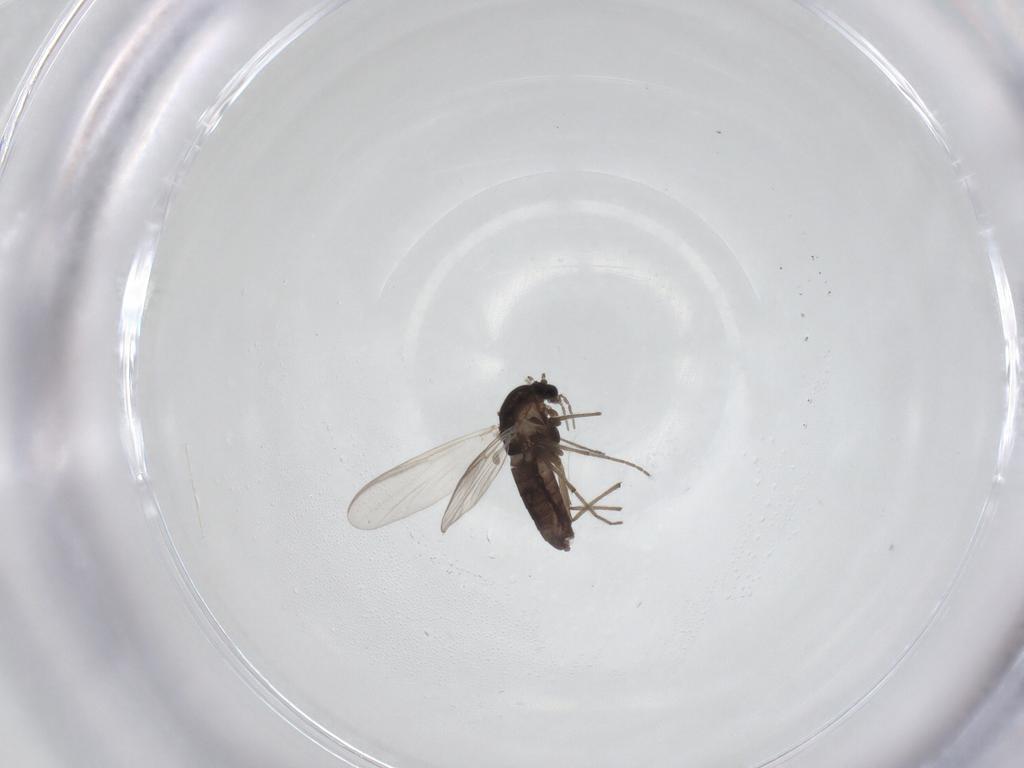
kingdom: Animalia
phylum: Arthropoda
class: Insecta
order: Diptera
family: Chironomidae
